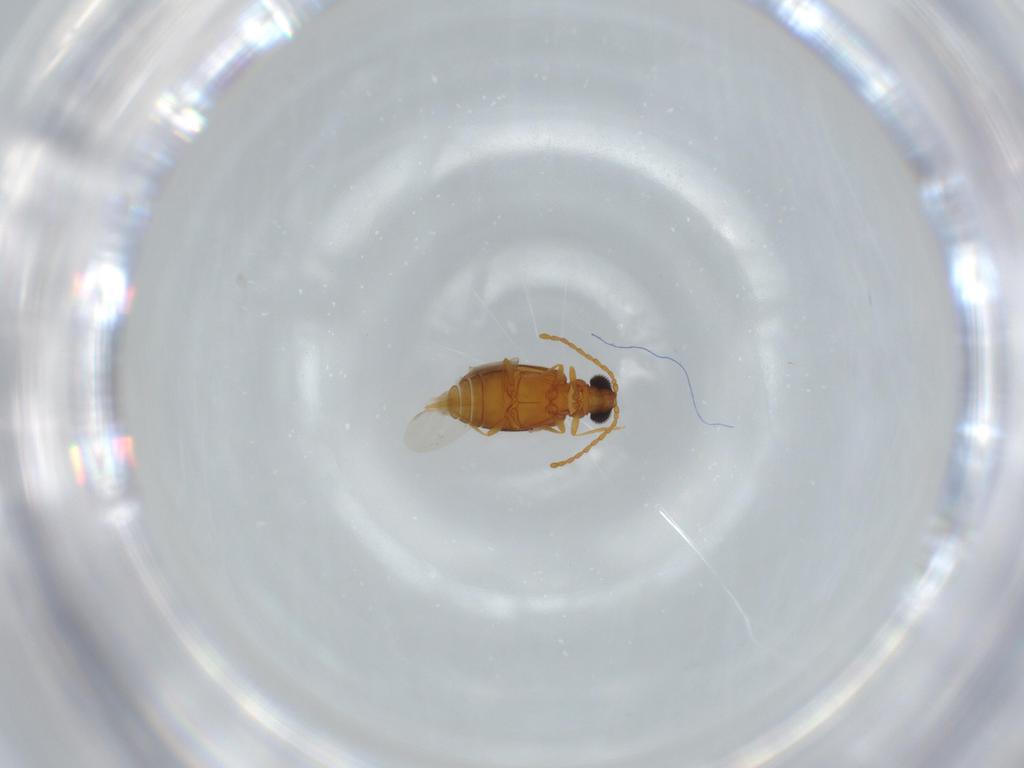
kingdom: Animalia
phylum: Arthropoda
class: Insecta
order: Coleoptera
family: Aderidae
